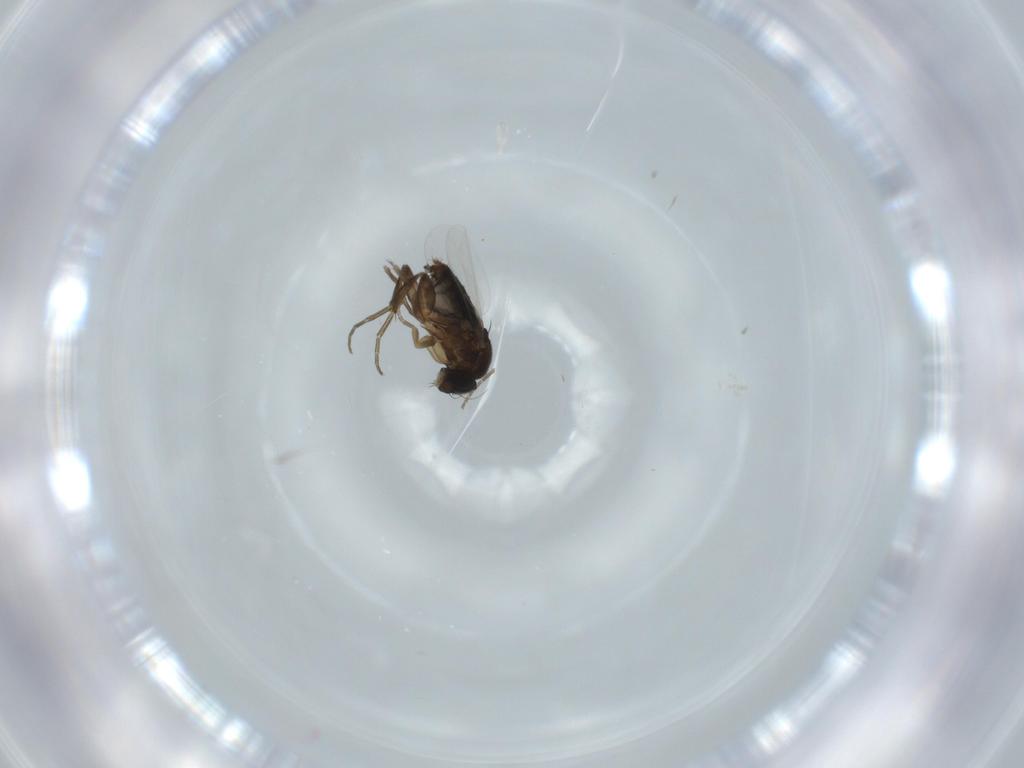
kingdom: Animalia
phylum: Arthropoda
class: Insecta
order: Diptera
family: Phoridae
